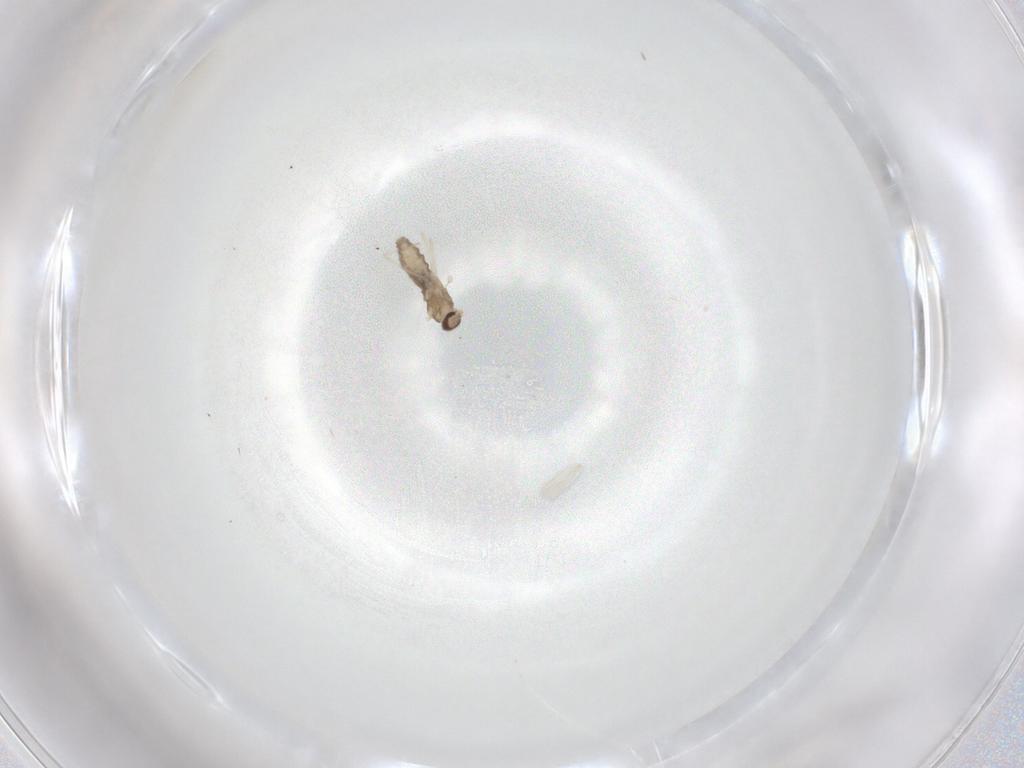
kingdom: Animalia
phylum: Arthropoda
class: Insecta
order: Diptera
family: Cecidomyiidae
